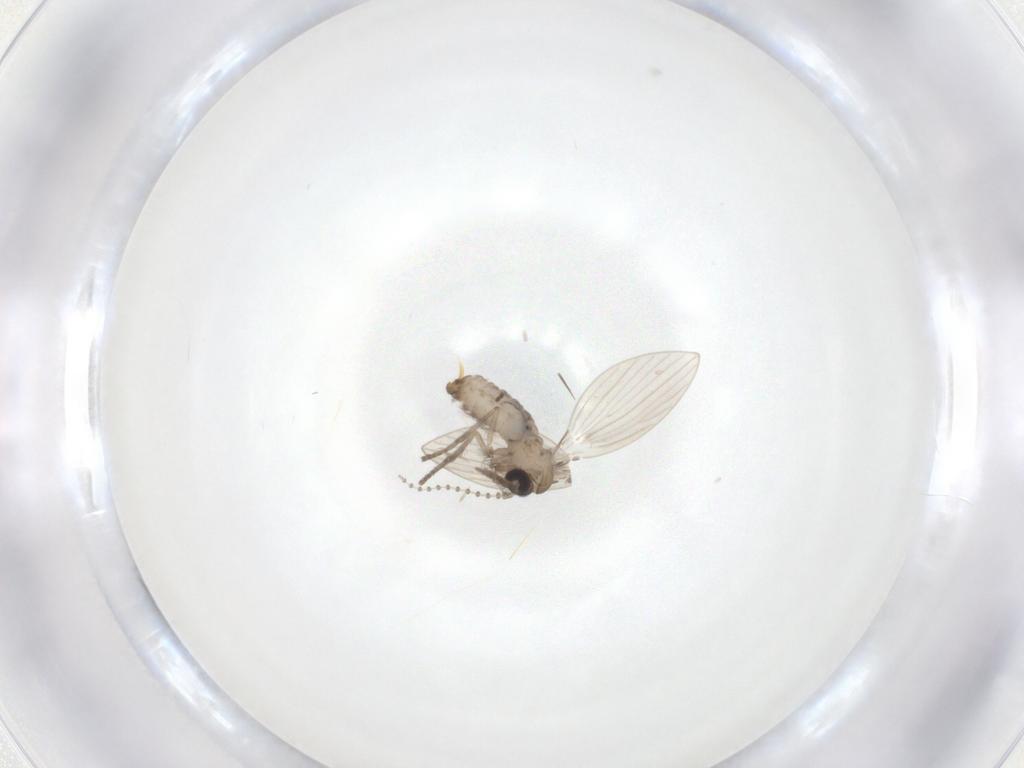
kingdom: Animalia
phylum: Arthropoda
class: Insecta
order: Diptera
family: Psychodidae
